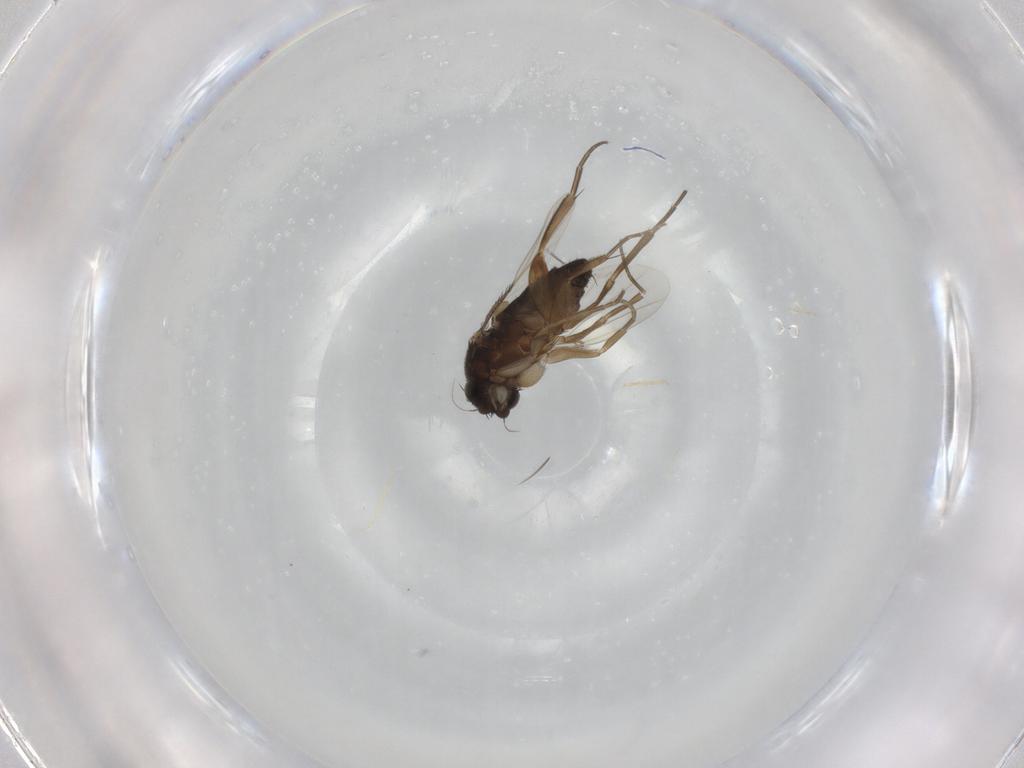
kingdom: Animalia
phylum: Arthropoda
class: Insecta
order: Diptera
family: Phoridae
